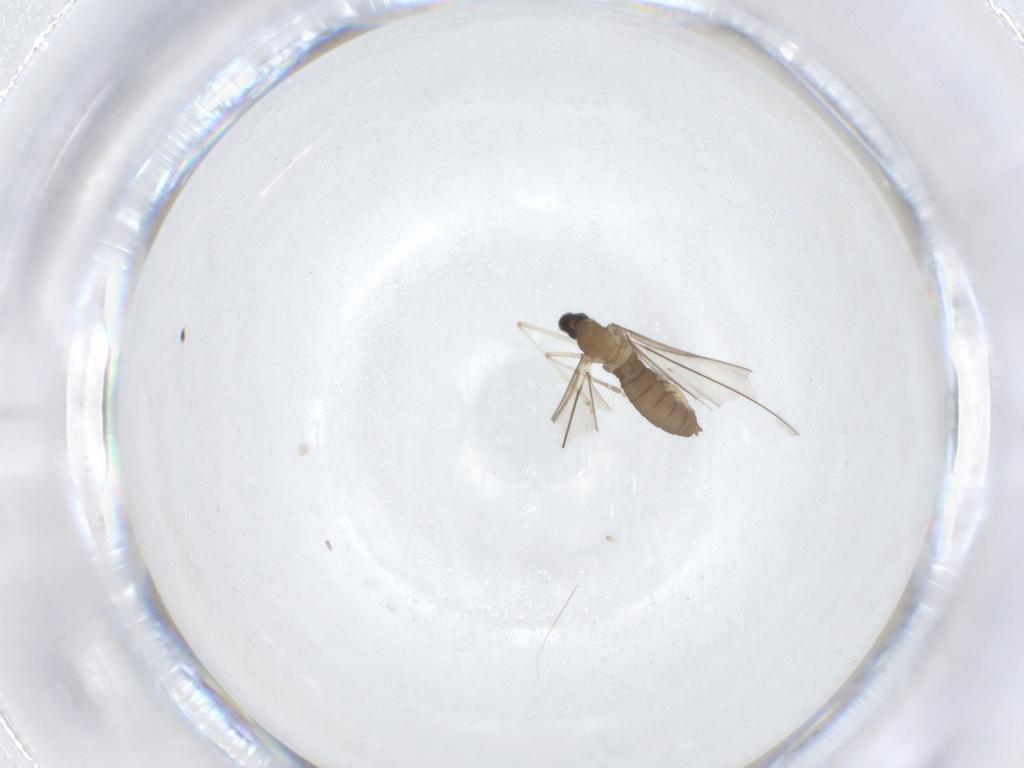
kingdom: Animalia
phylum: Arthropoda
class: Insecta
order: Diptera
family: Cecidomyiidae
